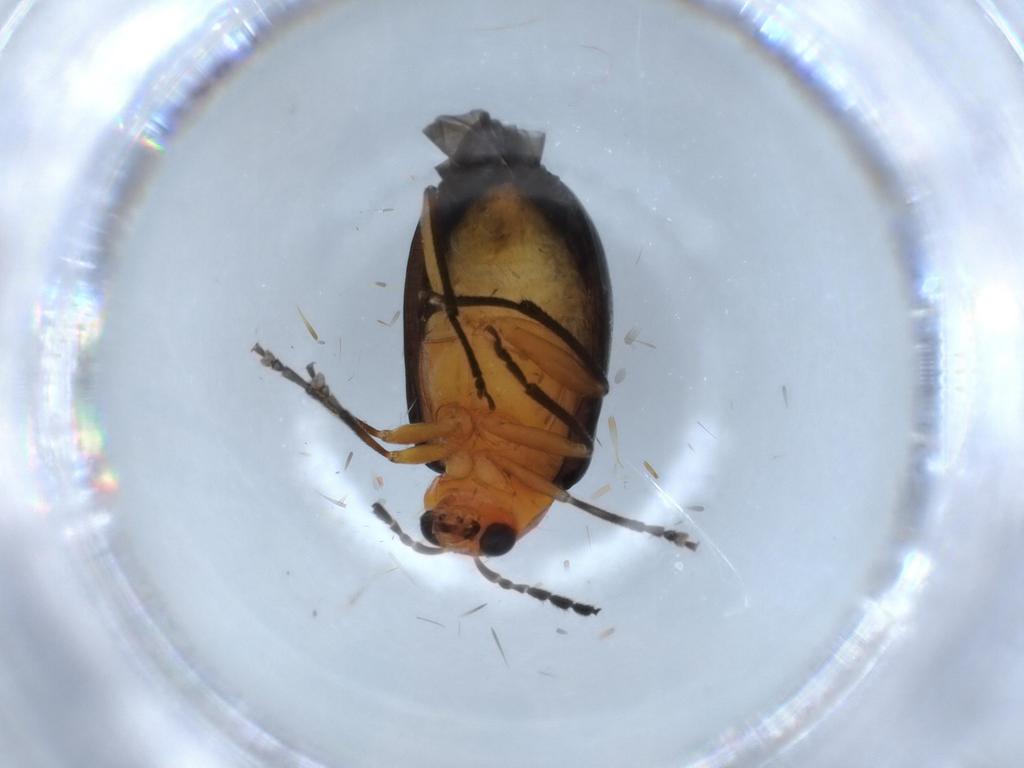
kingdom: Animalia
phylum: Arthropoda
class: Insecta
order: Coleoptera
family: Chrysomelidae
